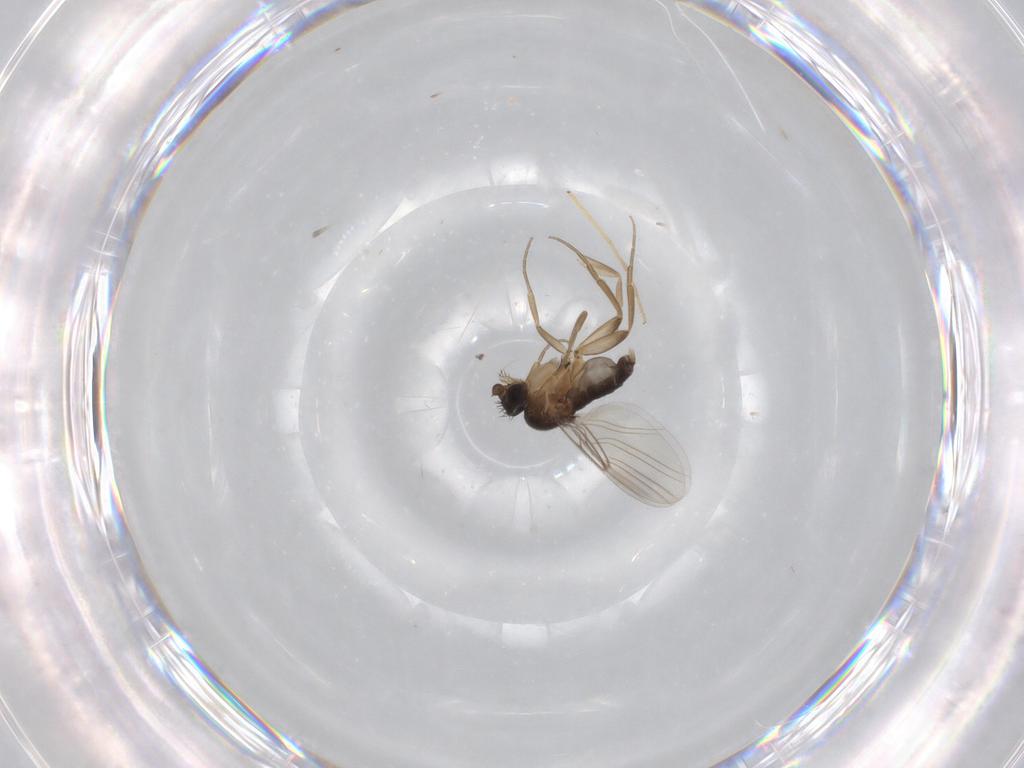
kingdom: Animalia
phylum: Arthropoda
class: Insecta
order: Diptera
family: Phoridae
